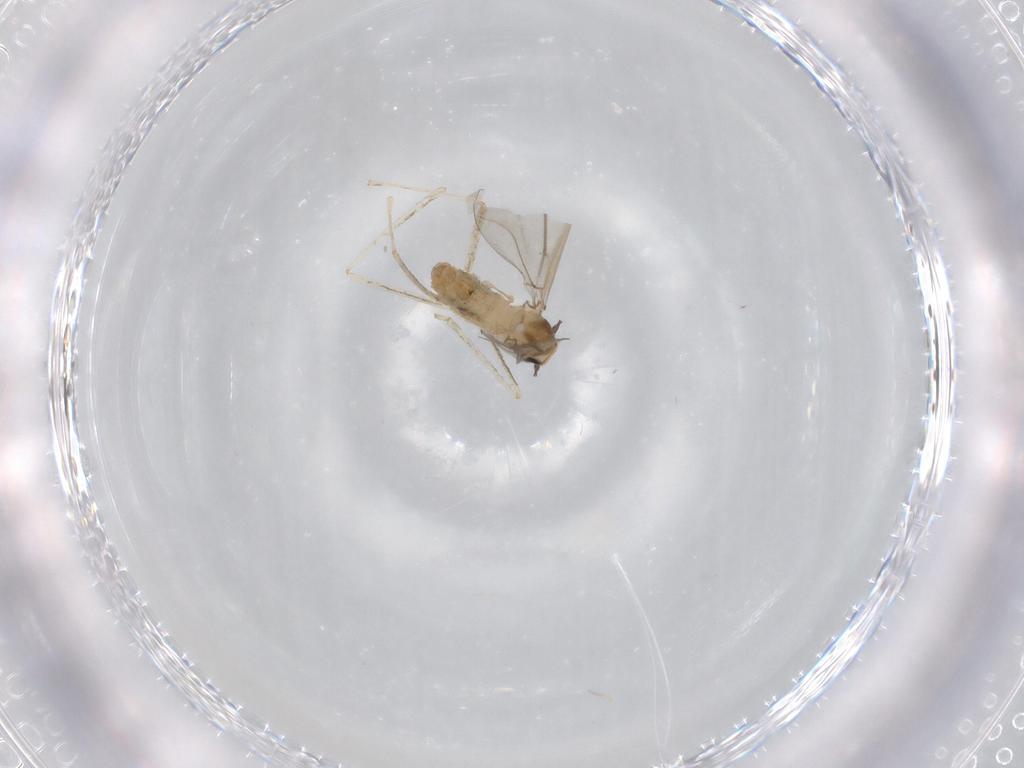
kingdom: Animalia
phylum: Arthropoda
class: Insecta
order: Diptera
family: Cecidomyiidae
